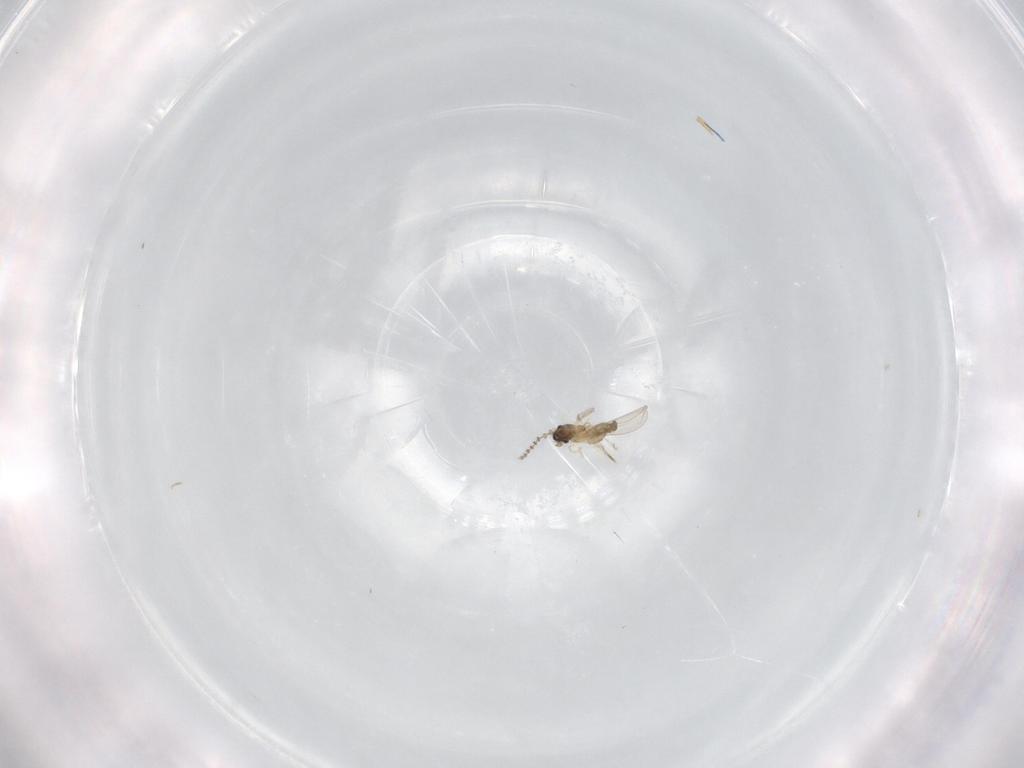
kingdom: Animalia
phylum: Arthropoda
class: Insecta
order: Diptera
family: Cecidomyiidae
